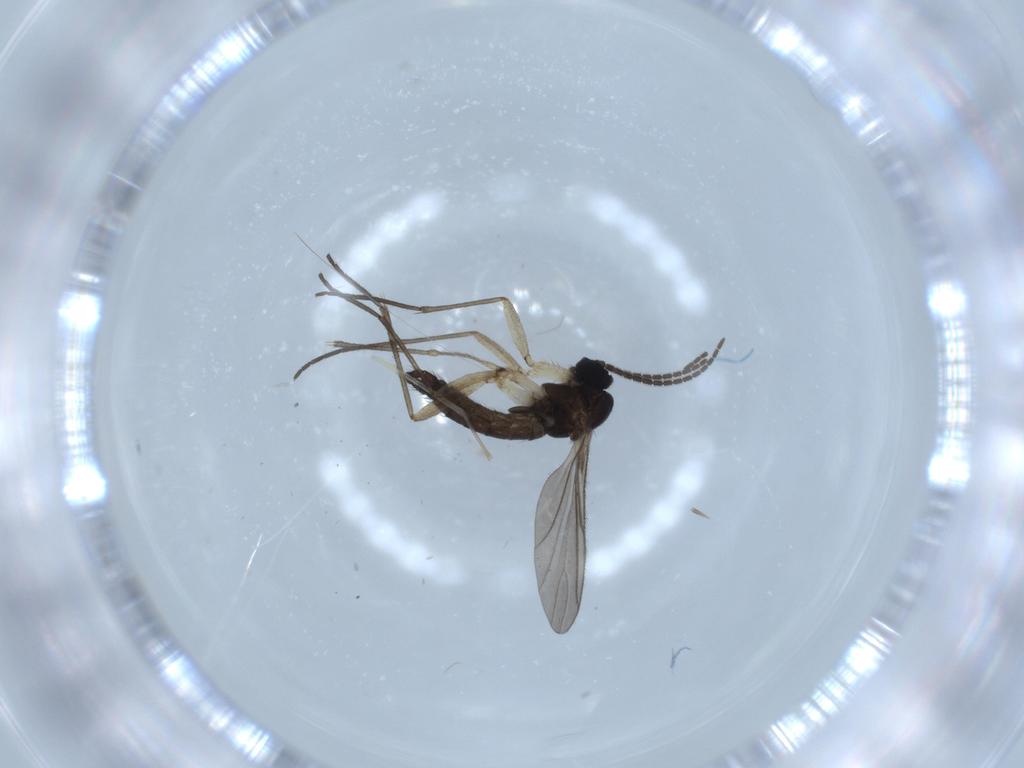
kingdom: Animalia
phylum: Arthropoda
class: Insecta
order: Diptera
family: Sciaridae
